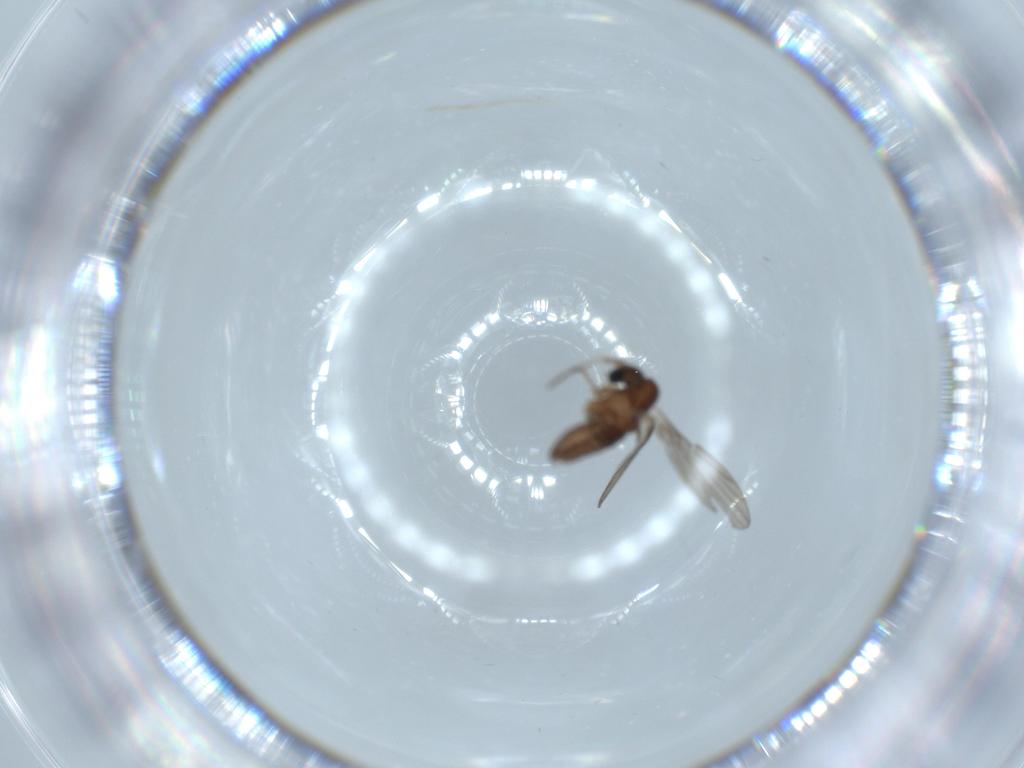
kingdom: Animalia
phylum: Arthropoda
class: Insecta
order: Diptera
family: Psychodidae
